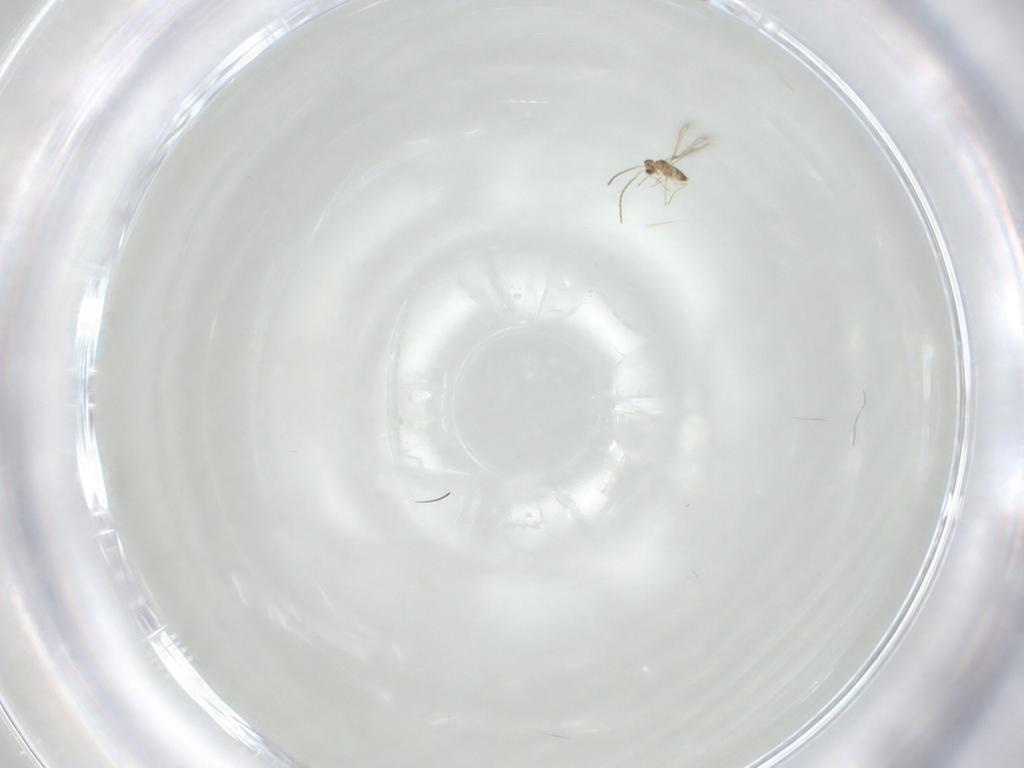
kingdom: Animalia
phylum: Arthropoda
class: Insecta
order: Hymenoptera
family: Mymaridae
